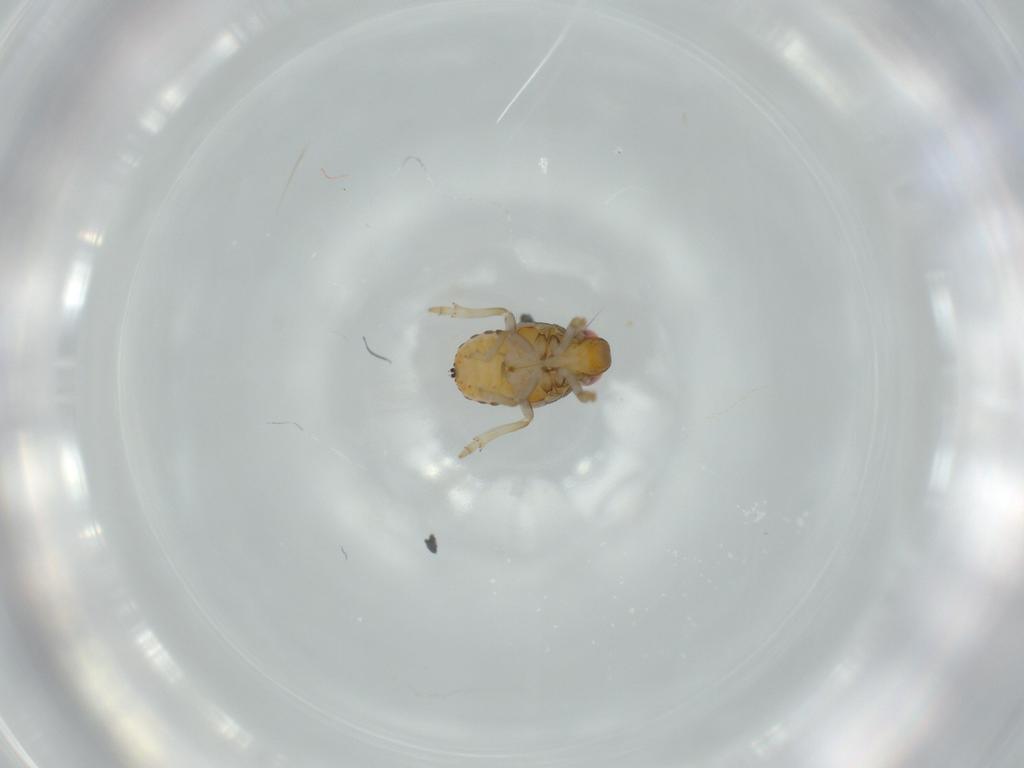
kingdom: Animalia
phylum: Arthropoda
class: Insecta
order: Hemiptera
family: Issidae
